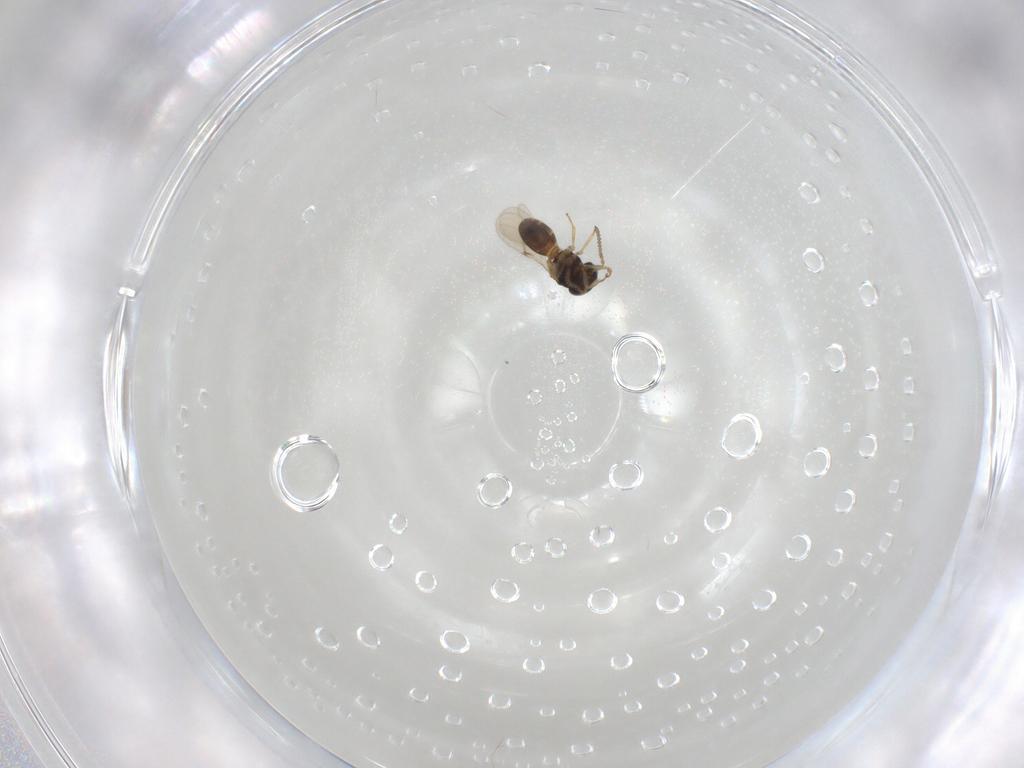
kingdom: Animalia
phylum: Arthropoda
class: Insecta
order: Hymenoptera
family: Scelionidae
